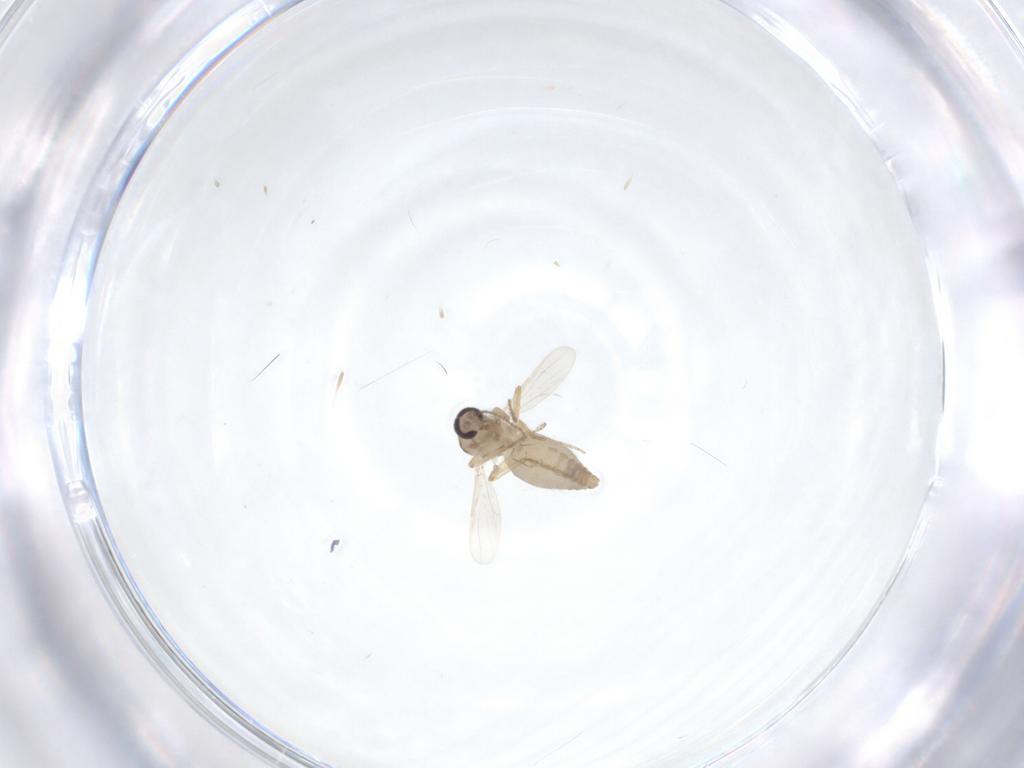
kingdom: Animalia
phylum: Arthropoda
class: Insecta
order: Diptera
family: Ceratopogonidae
